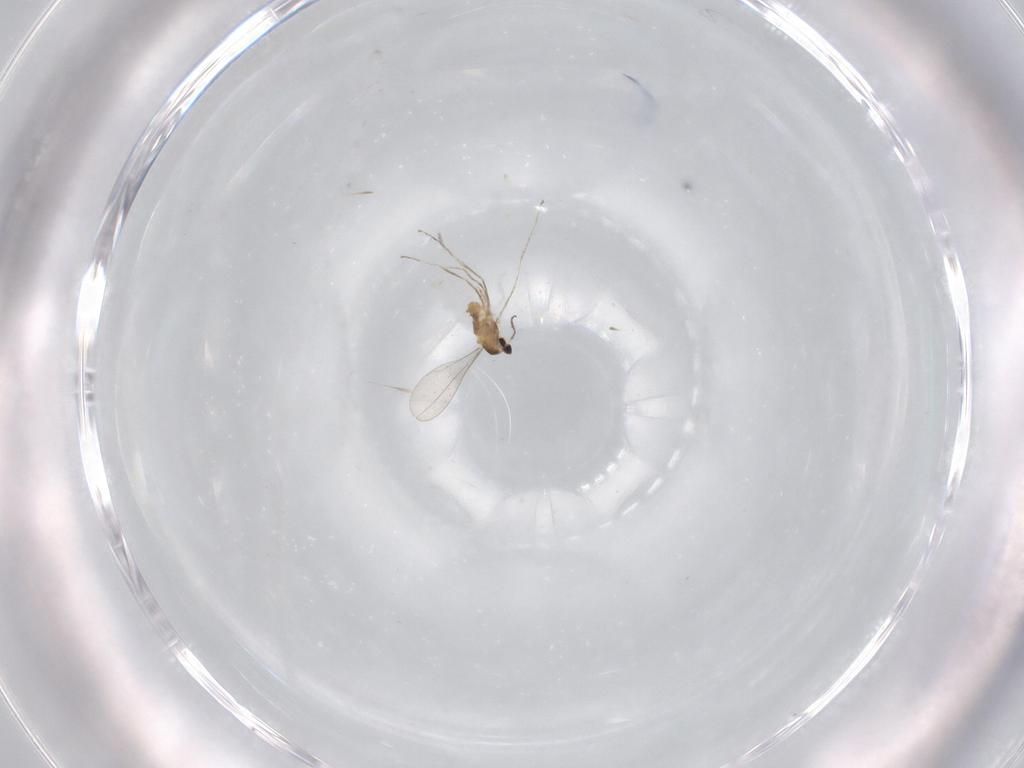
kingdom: Animalia
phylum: Arthropoda
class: Insecta
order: Diptera
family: Cecidomyiidae
